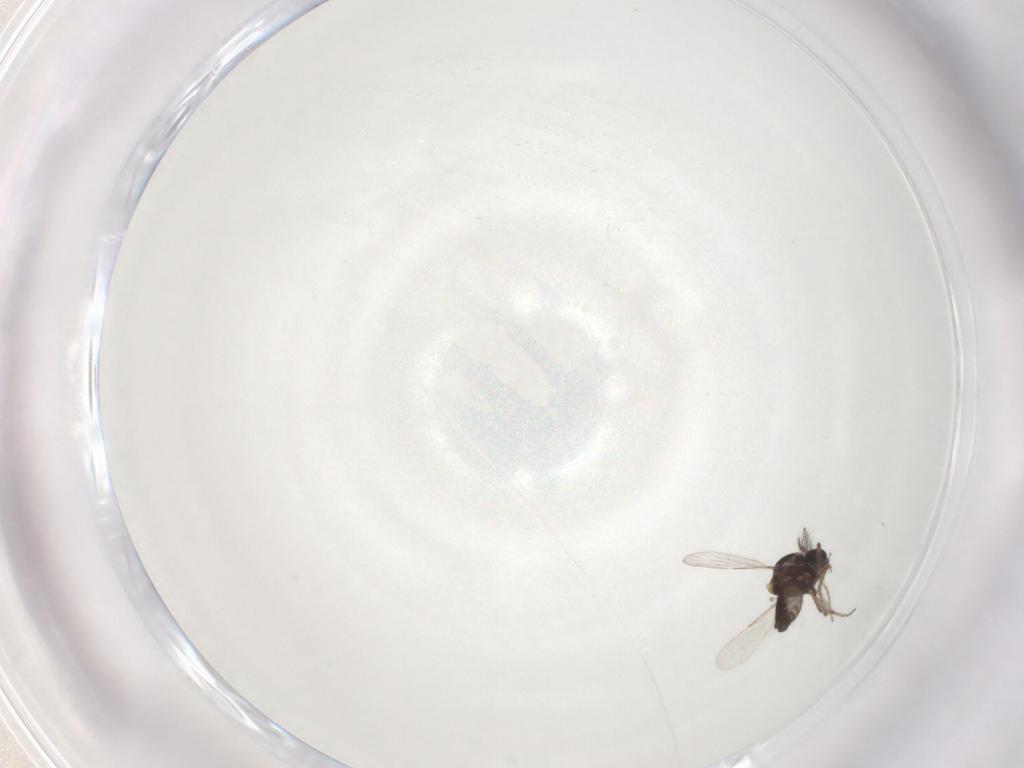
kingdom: Animalia
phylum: Arthropoda
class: Insecta
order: Diptera
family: Ceratopogonidae
